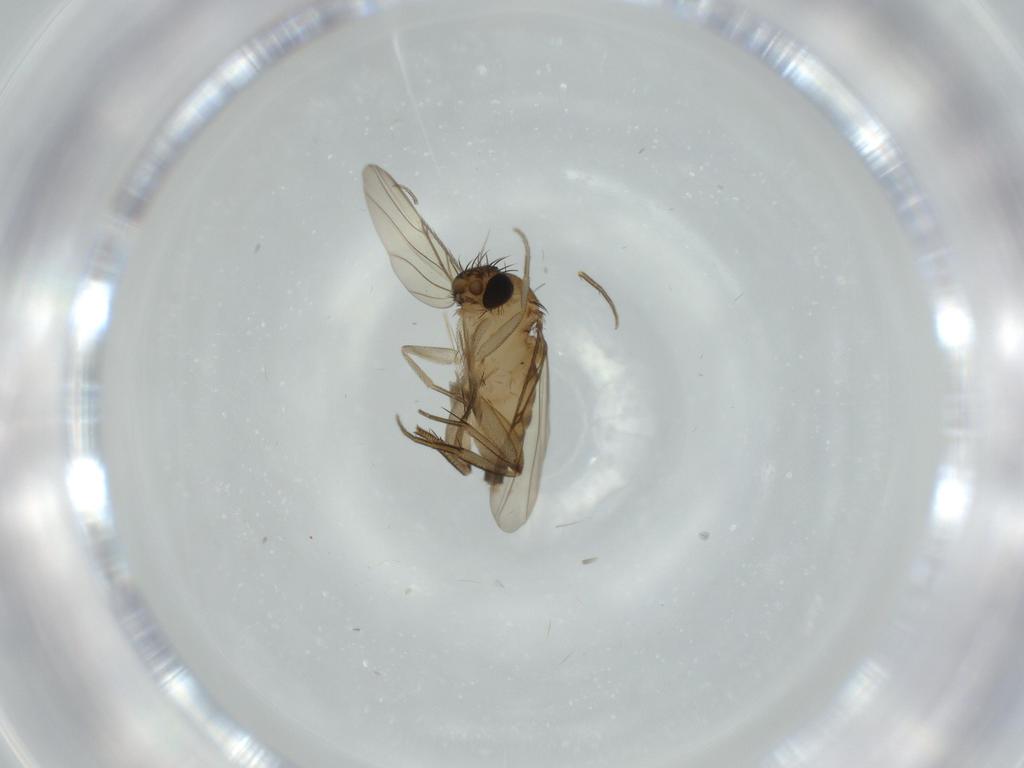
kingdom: Animalia
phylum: Arthropoda
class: Insecta
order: Diptera
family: Phoridae
